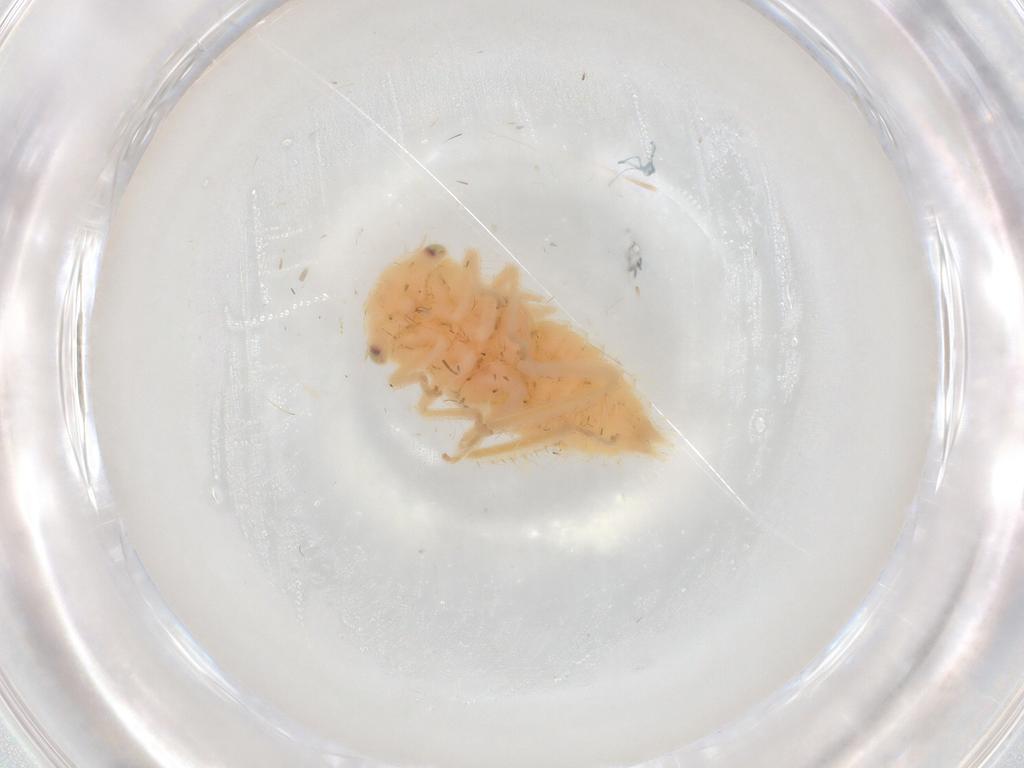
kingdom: Animalia
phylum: Arthropoda
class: Insecta
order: Hemiptera
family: Cicadellidae
